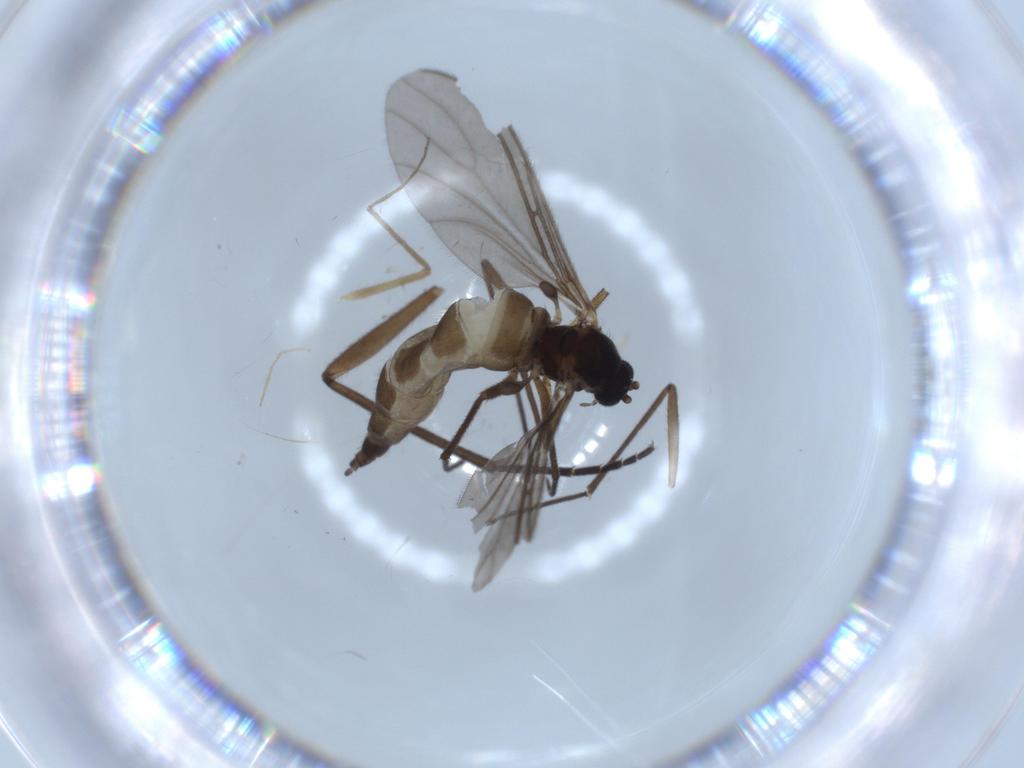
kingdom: Animalia
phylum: Arthropoda
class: Insecta
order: Diptera
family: Sciaridae
